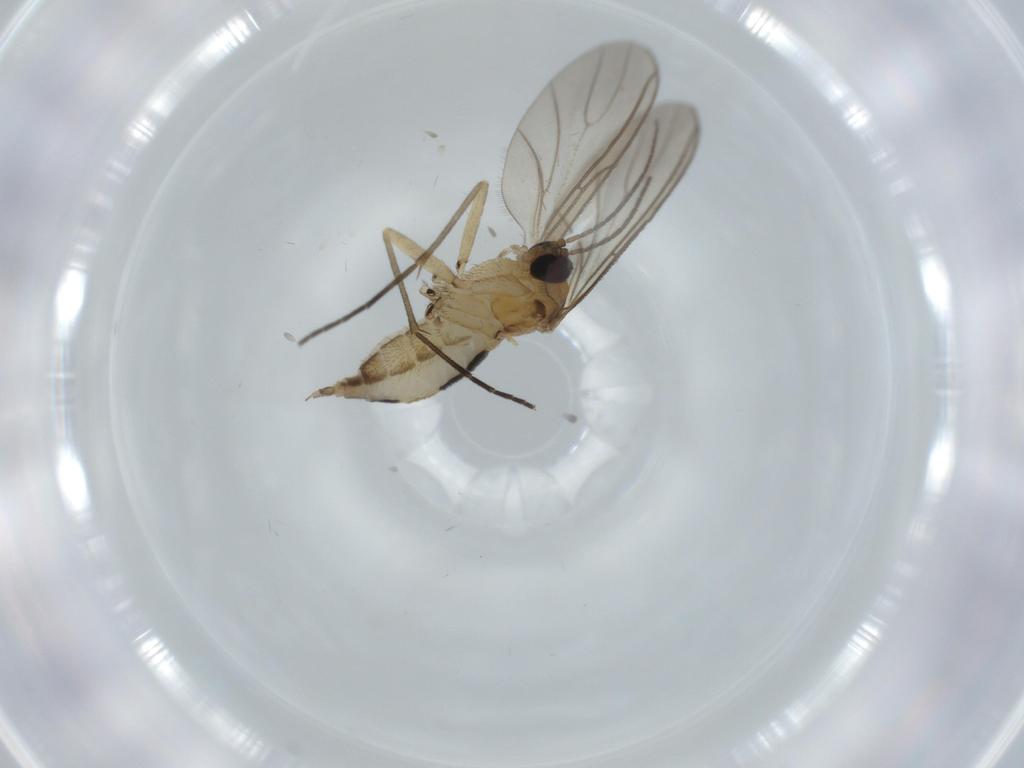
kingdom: Animalia
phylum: Arthropoda
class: Insecta
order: Diptera
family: Sciaridae
